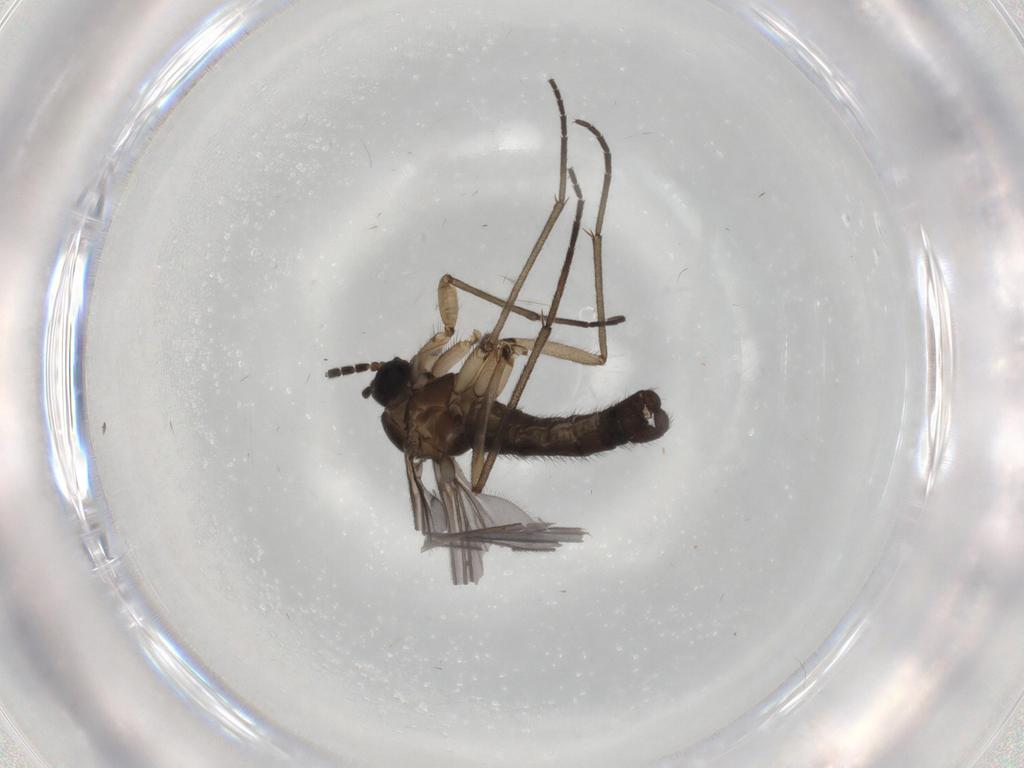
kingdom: Animalia
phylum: Arthropoda
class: Insecta
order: Diptera
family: Sciaridae
